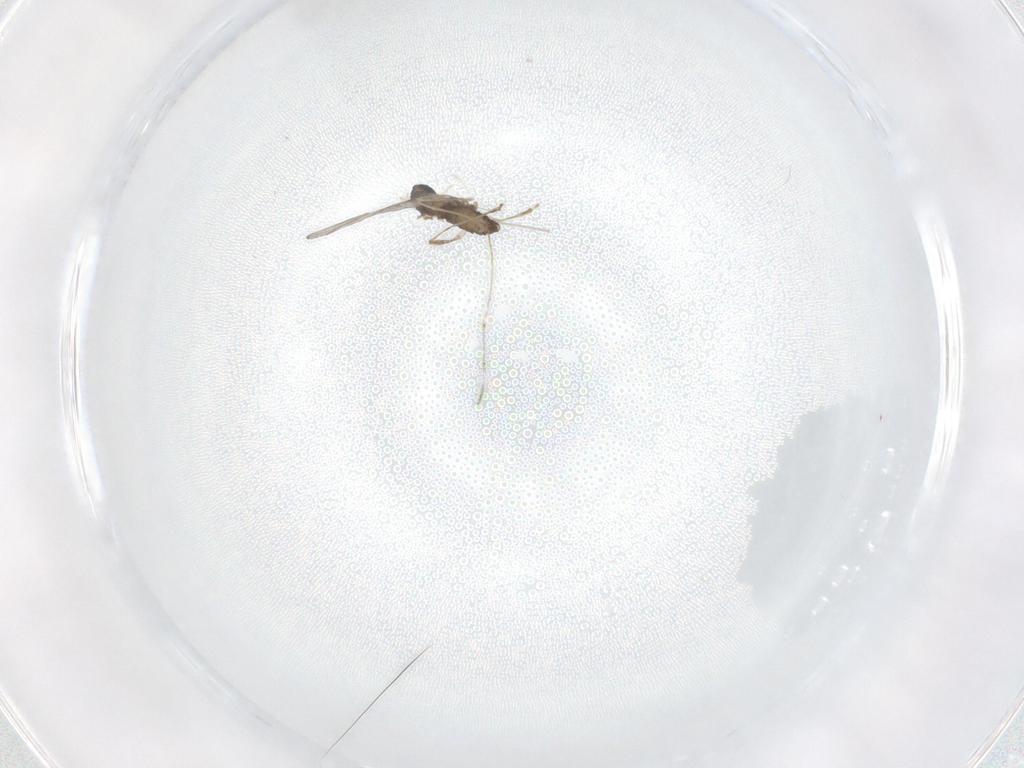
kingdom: Animalia
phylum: Arthropoda
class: Insecta
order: Diptera
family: Cecidomyiidae
